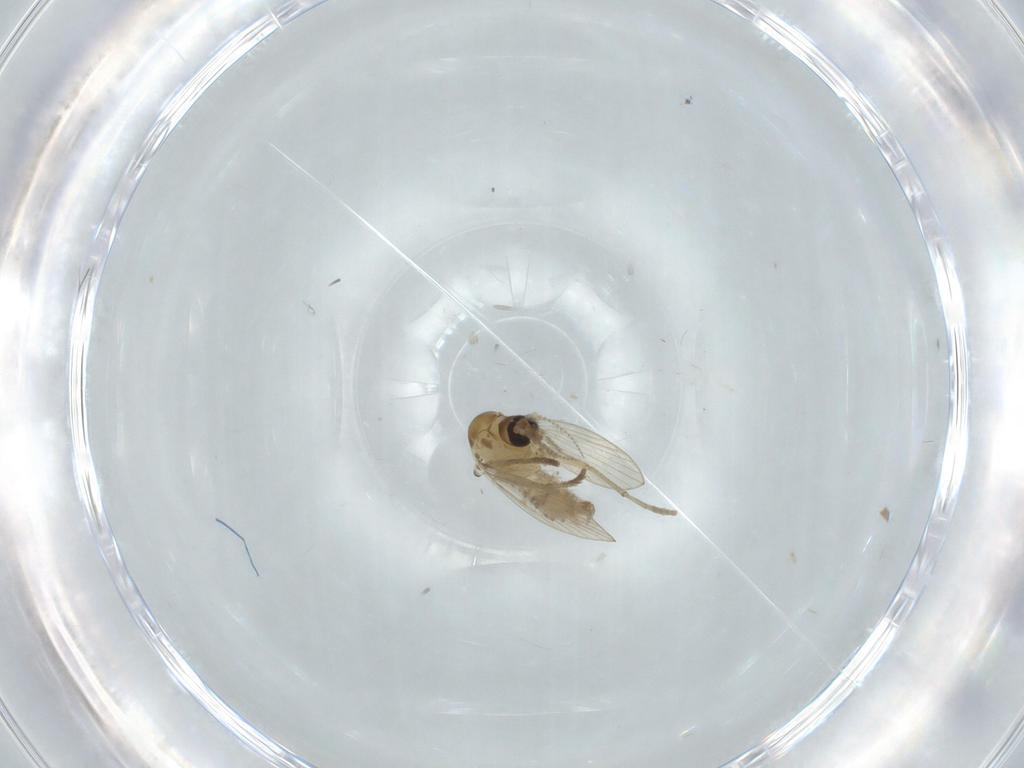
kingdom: Animalia
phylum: Arthropoda
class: Insecta
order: Diptera
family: Psychodidae
